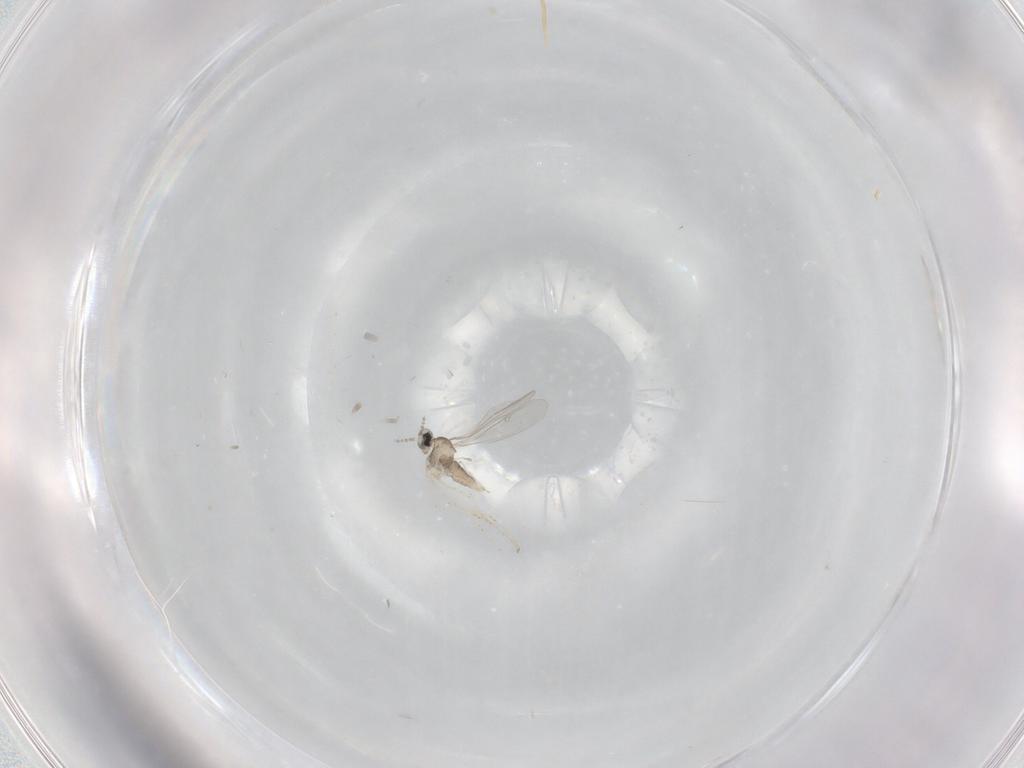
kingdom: Animalia
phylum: Arthropoda
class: Insecta
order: Diptera
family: Cecidomyiidae
